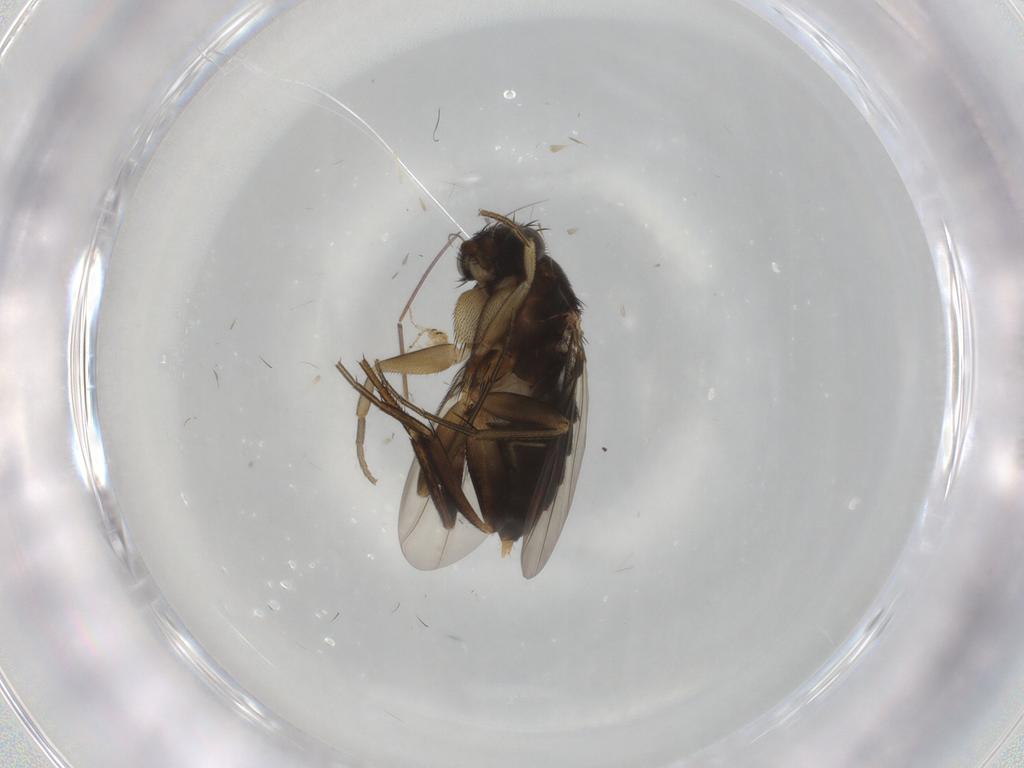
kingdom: Animalia
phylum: Arthropoda
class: Insecta
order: Diptera
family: Phoridae
